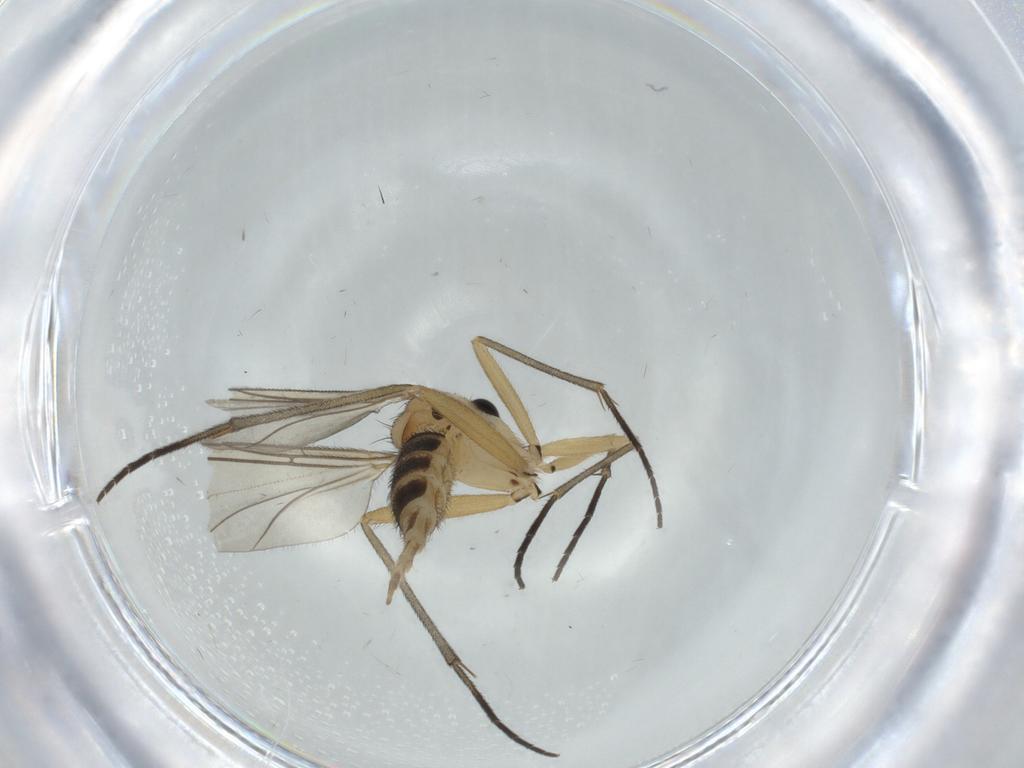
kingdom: Animalia
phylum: Arthropoda
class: Insecta
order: Diptera
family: Sciaridae
